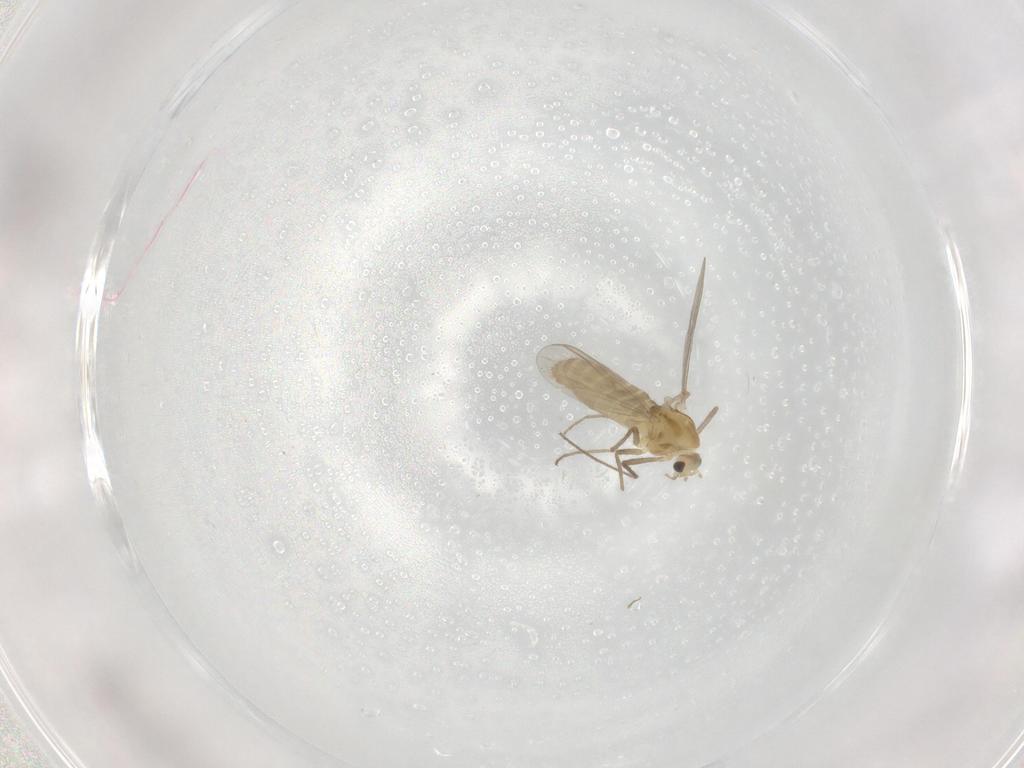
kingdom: Animalia
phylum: Arthropoda
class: Insecta
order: Diptera
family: Chironomidae
